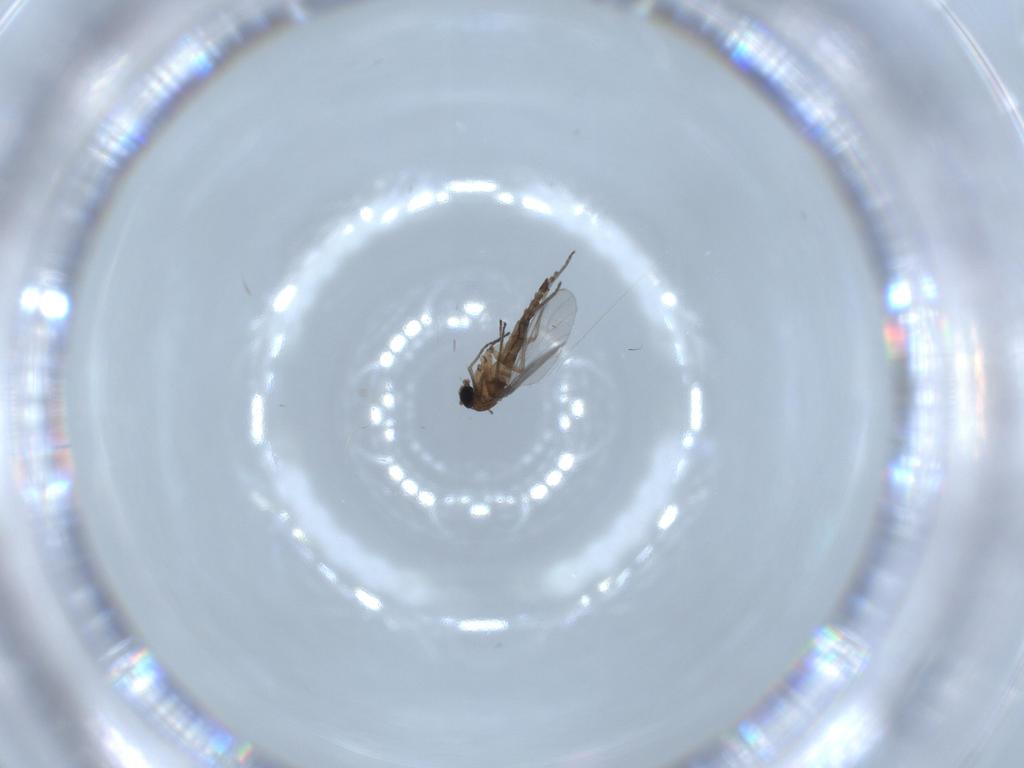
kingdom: Animalia
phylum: Arthropoda
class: Insecta
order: Diptera
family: Sciaridae
